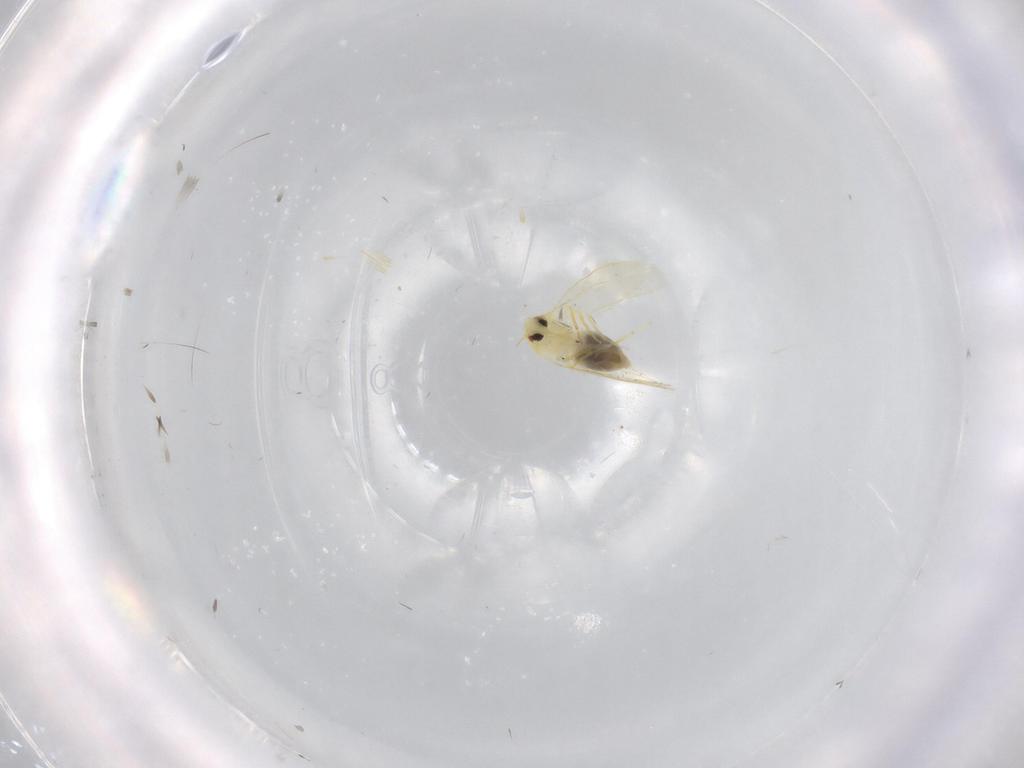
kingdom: Animalia
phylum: Arthropoda
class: Insecta
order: Hemiptera
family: Aleyrodidae
